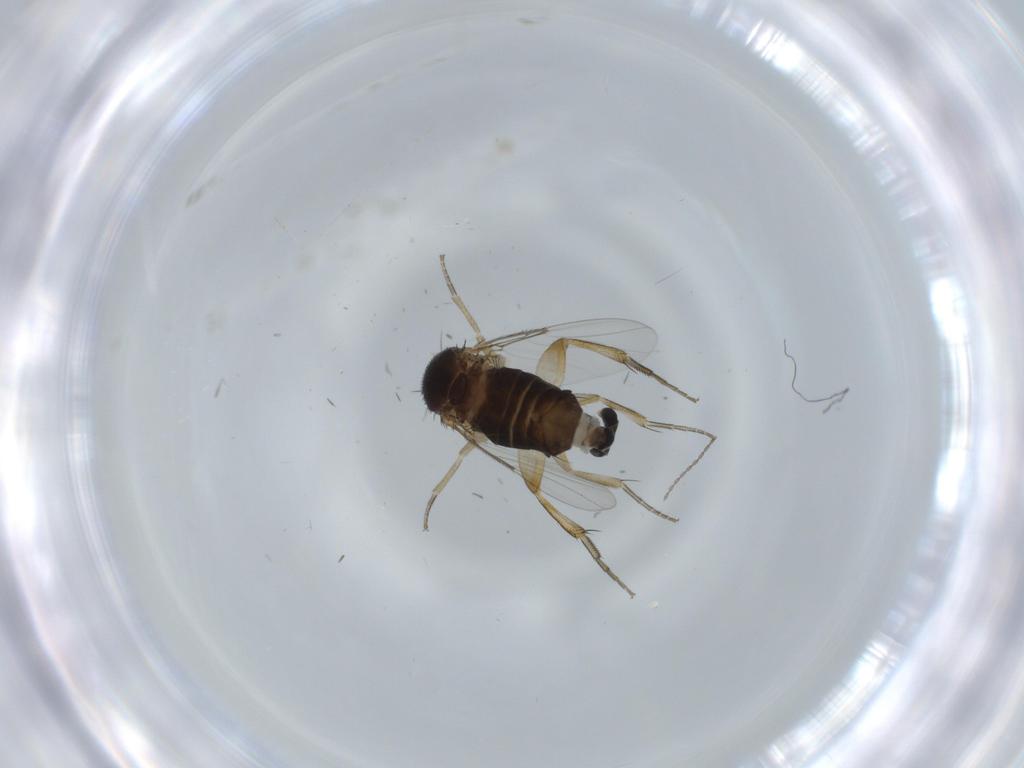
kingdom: Animalia
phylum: Arthropoda
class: Insecta
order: Diptera
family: Phoridae
